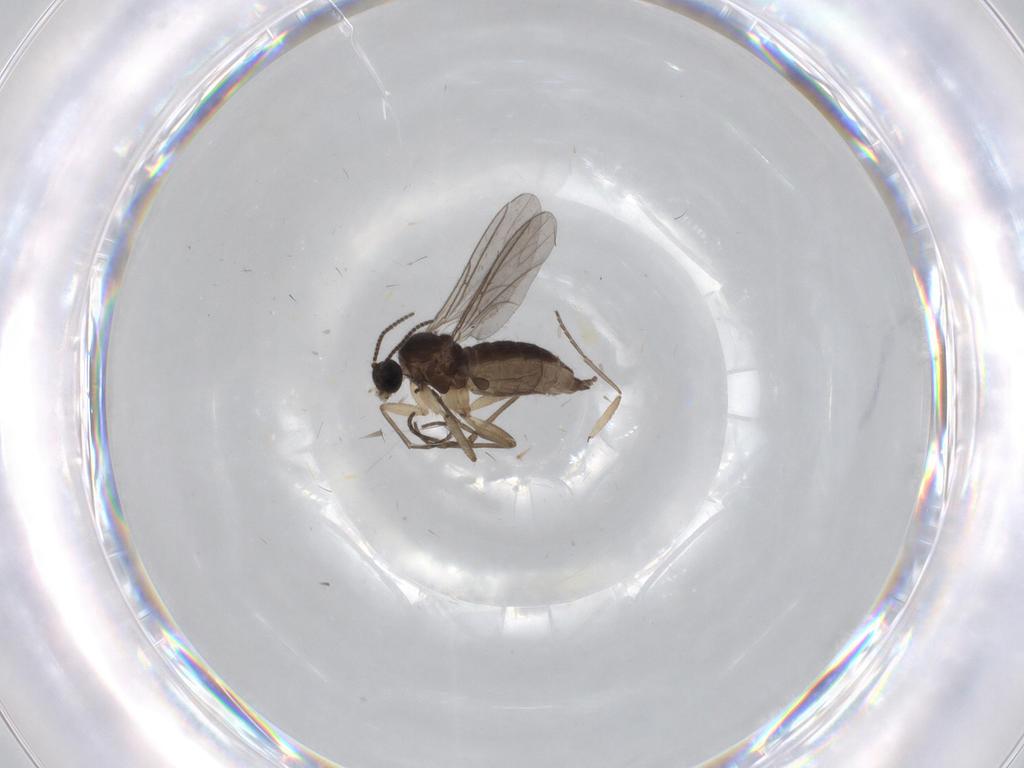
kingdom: Animalia
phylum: Arthropoda
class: Insecta
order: Diptera
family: Sciaridae
